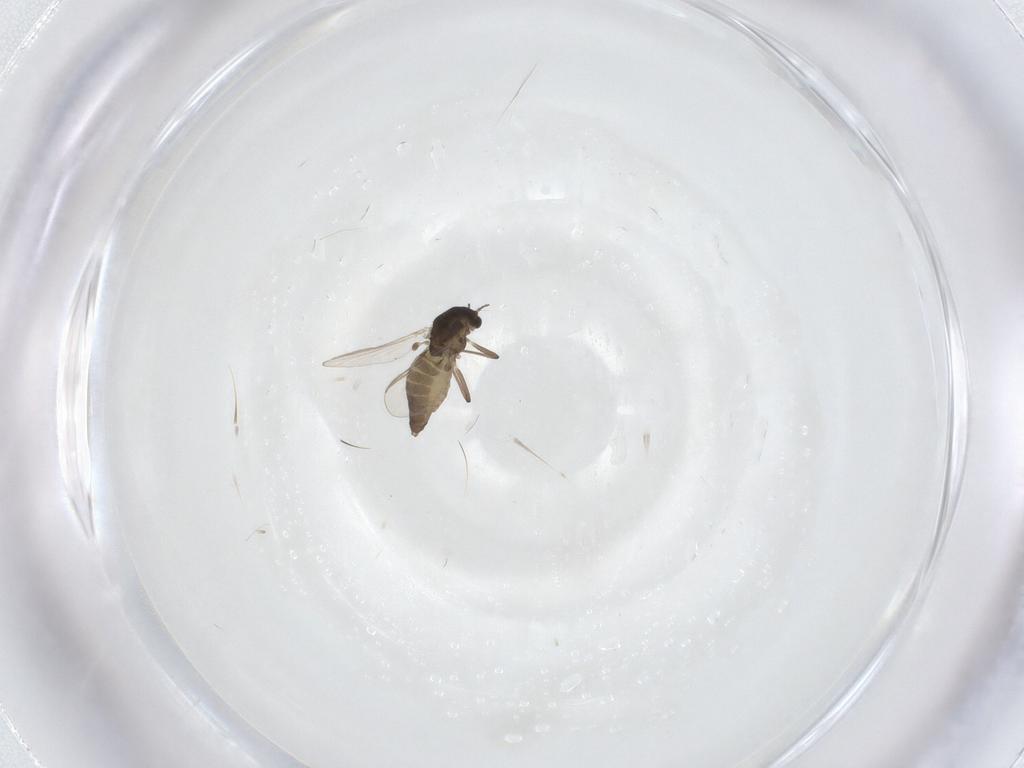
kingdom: Animalia
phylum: Arthropoda
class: Insecta
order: Diptera
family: Chironomidae
